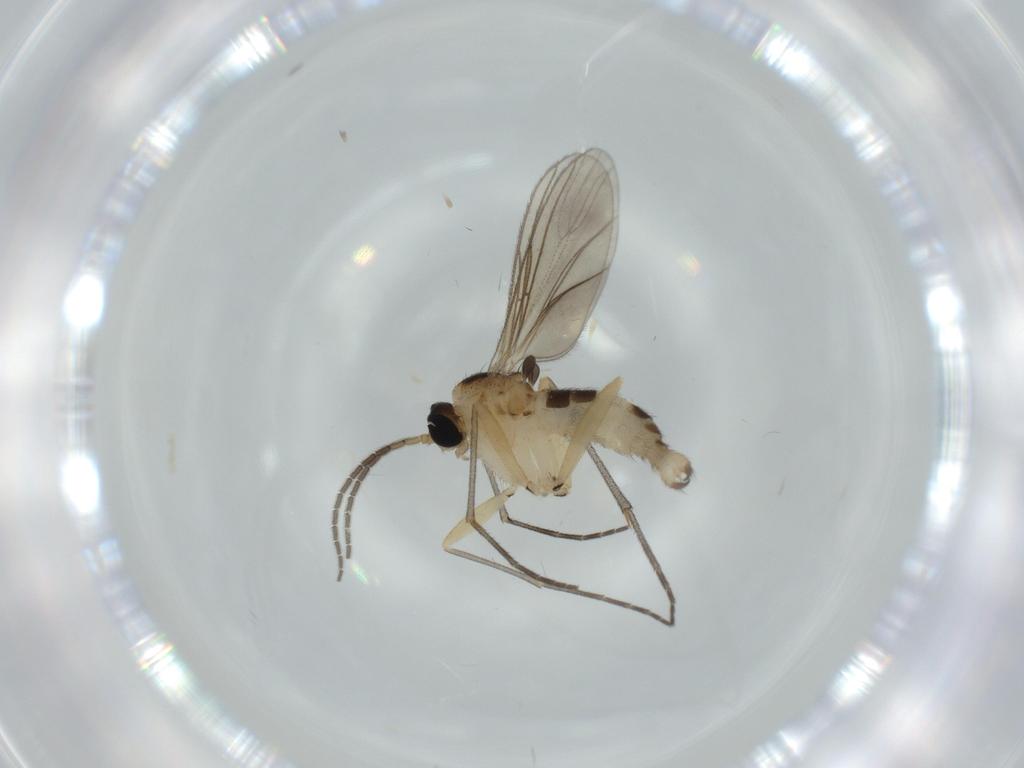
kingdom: Animalia
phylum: Arthropoda
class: Insecta
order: Diptera
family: Sciaridae
